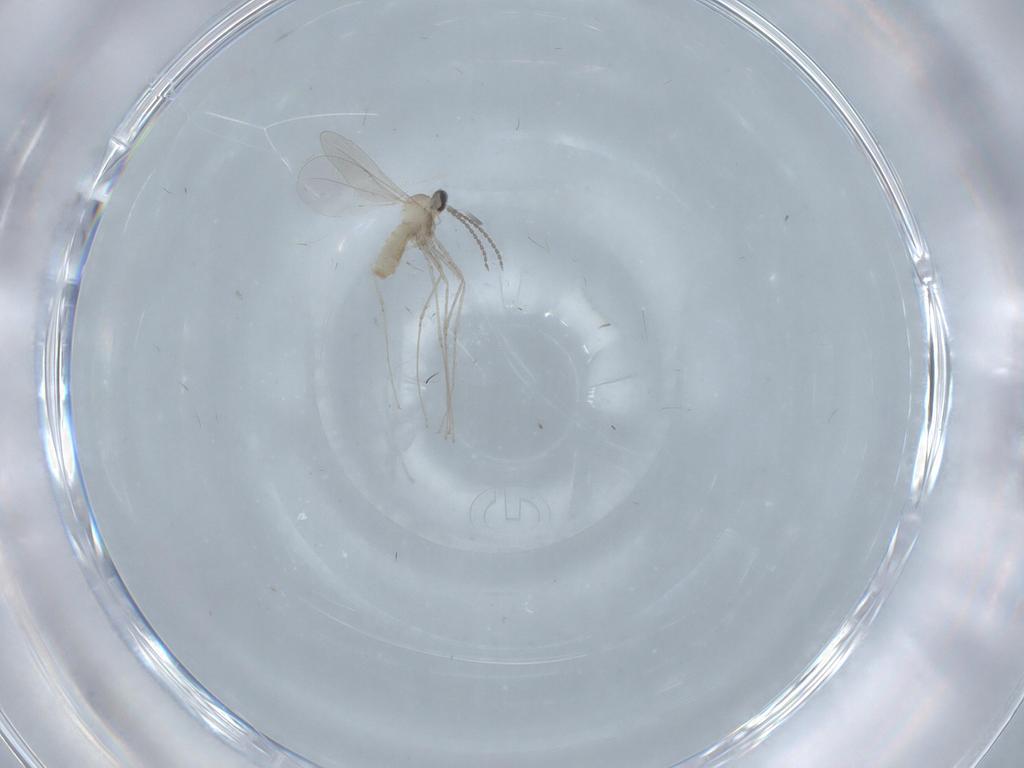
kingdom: Animalia
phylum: Arthropoda
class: Insecta
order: Diptera
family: Cecidomyiidae
